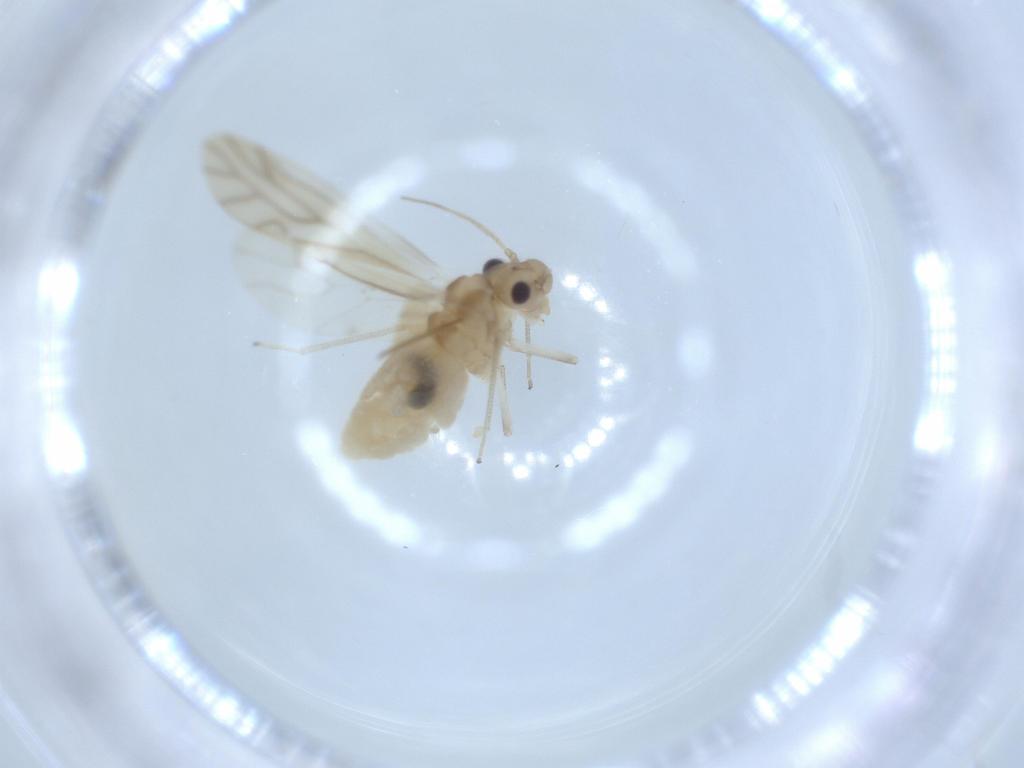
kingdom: Animalia
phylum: Arthropoda
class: Insecta
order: Psocodea
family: Caeciliusidae
